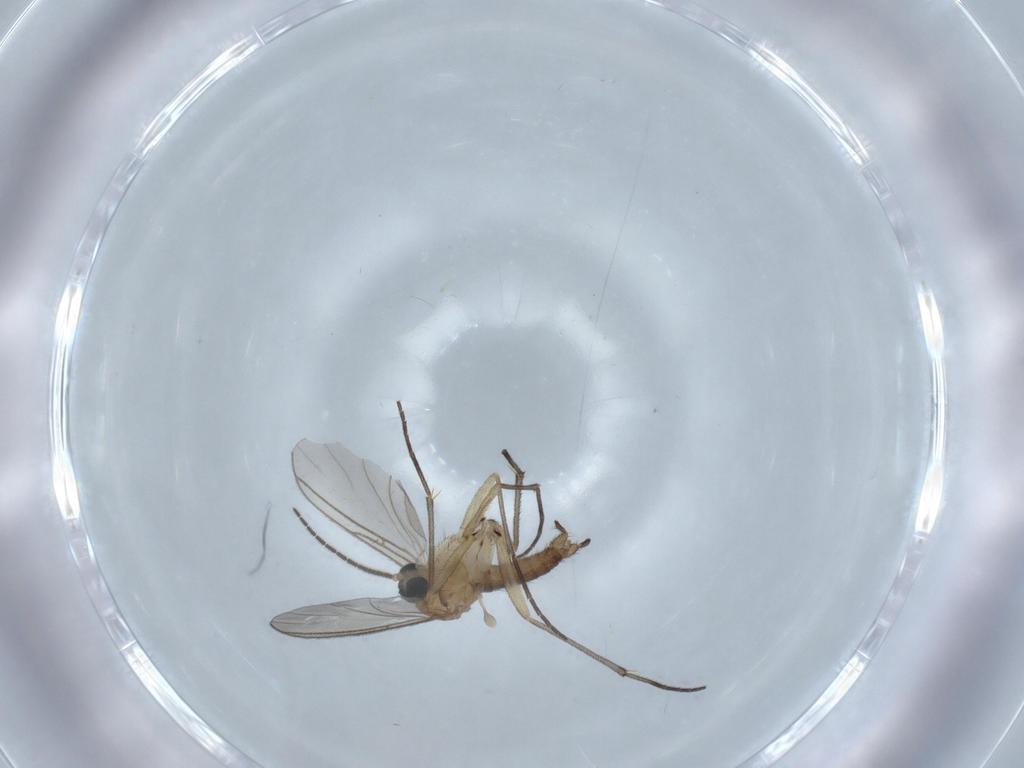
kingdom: Animalia
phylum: Arthropoda
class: Insecta
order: Diptera
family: Sciaridae
